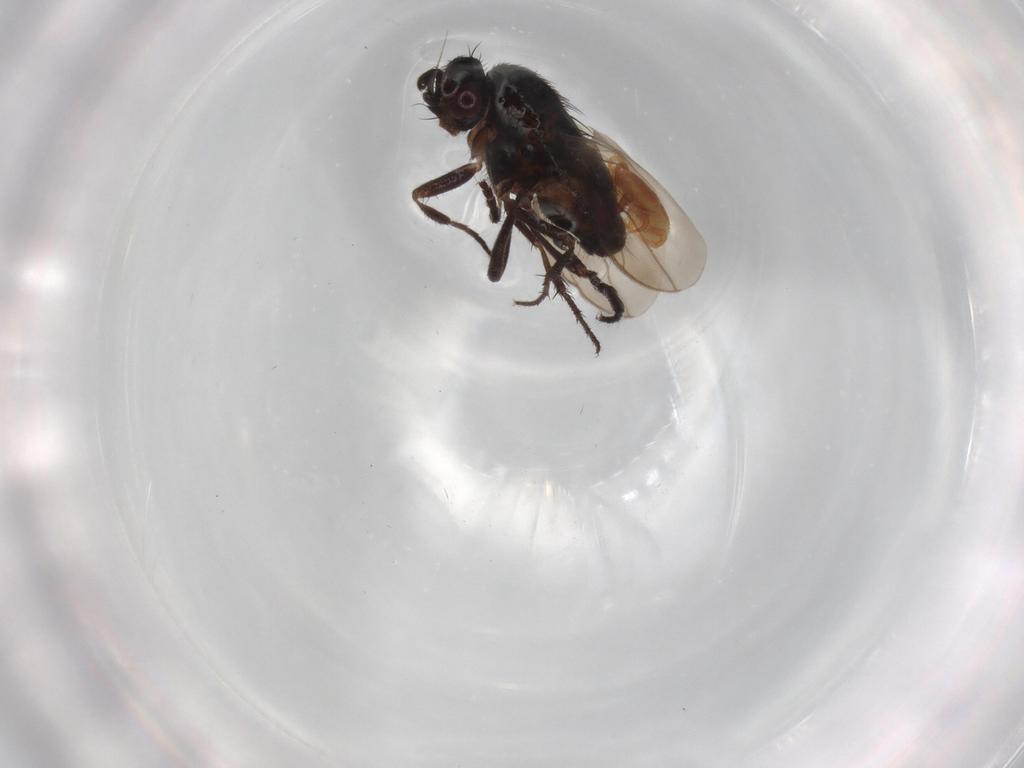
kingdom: Animalia
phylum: Arthropoda
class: Insecta
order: Diptera
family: Sphaeroceridae
